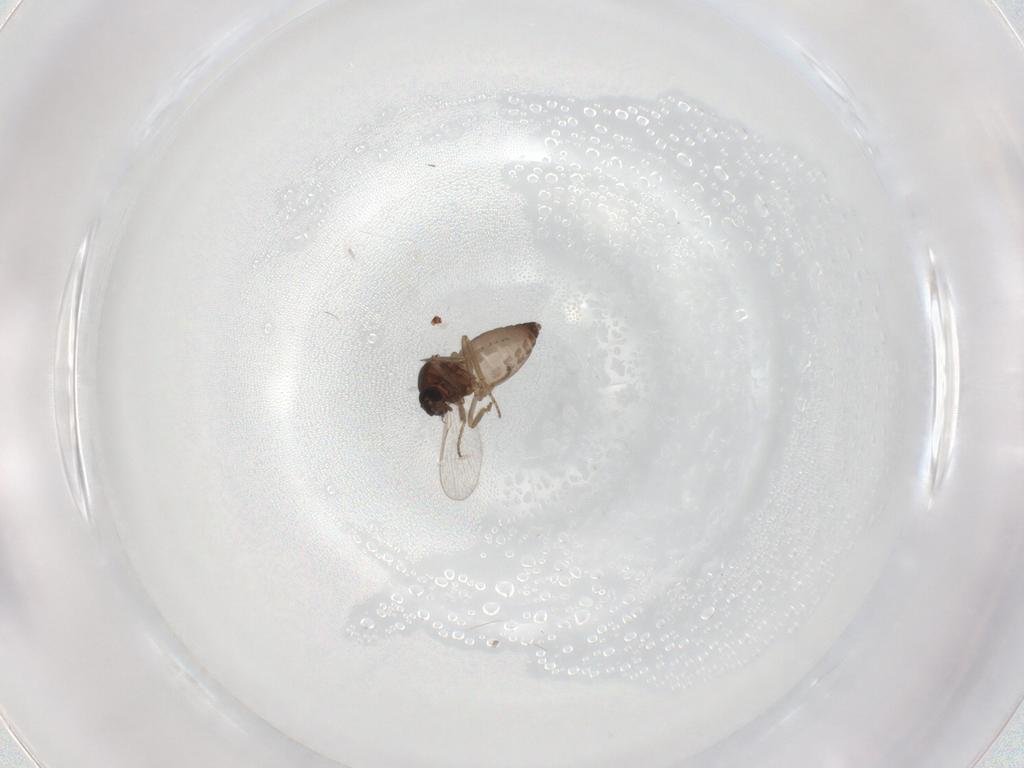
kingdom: Animalia
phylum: Arthropoda
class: Insecta
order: Diptera
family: Ceratopogonidae
